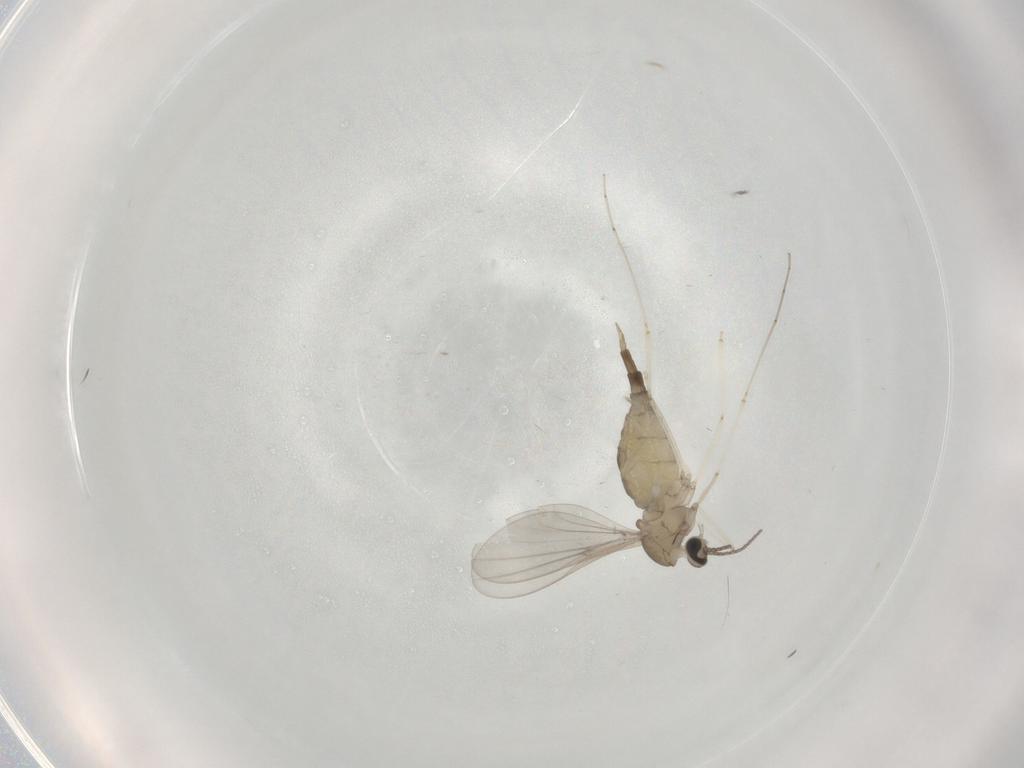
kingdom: Animalia
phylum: Arthropoda
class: Insecta
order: Diptera
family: Cecidomyiidae
